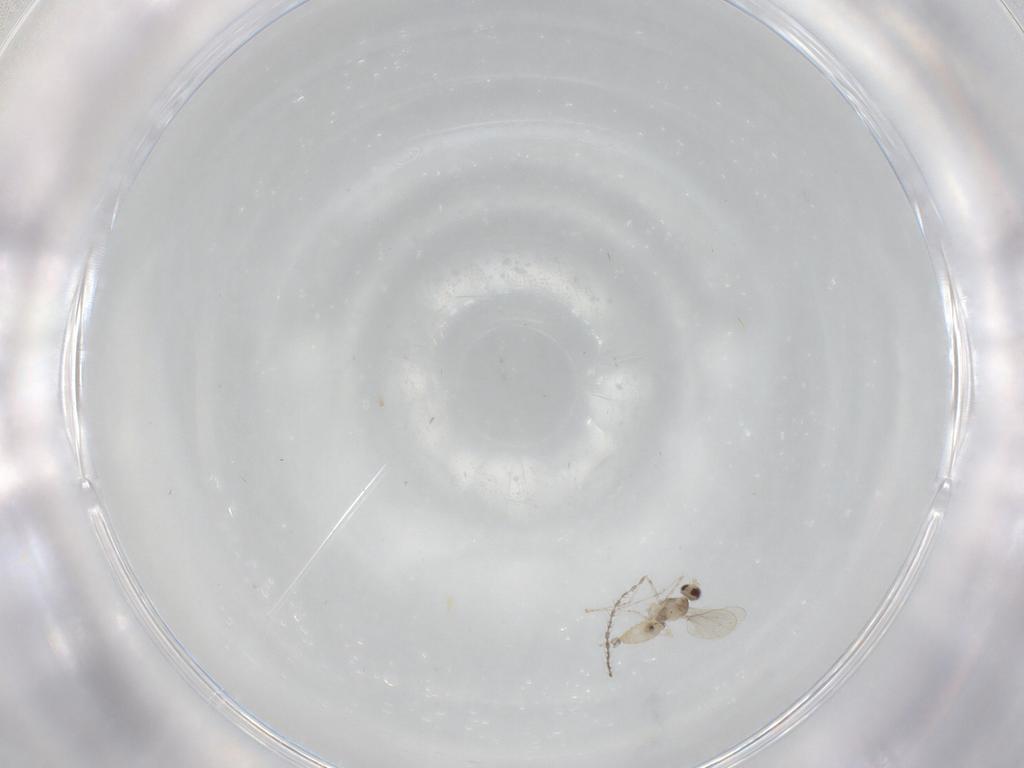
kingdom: Animalia
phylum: Arthropoda
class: Insecta
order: Diptera
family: Cecidomyiidae
